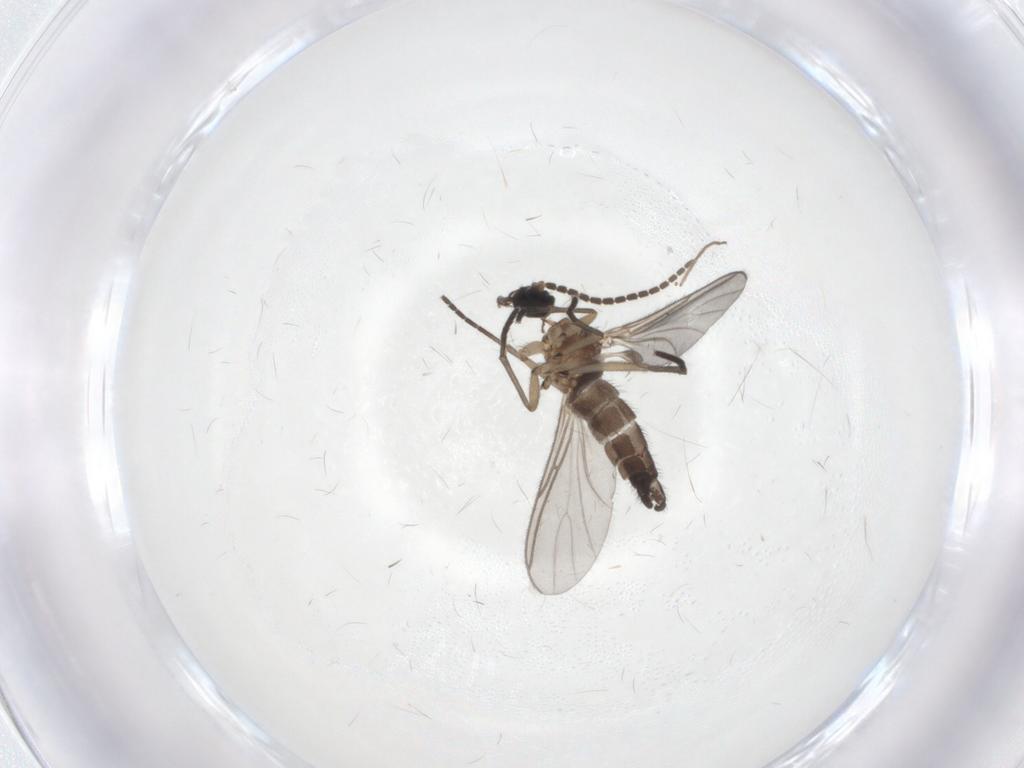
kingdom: Animalia
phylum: Arthropoda
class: Insecta
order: Diptera
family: Sciaridae
